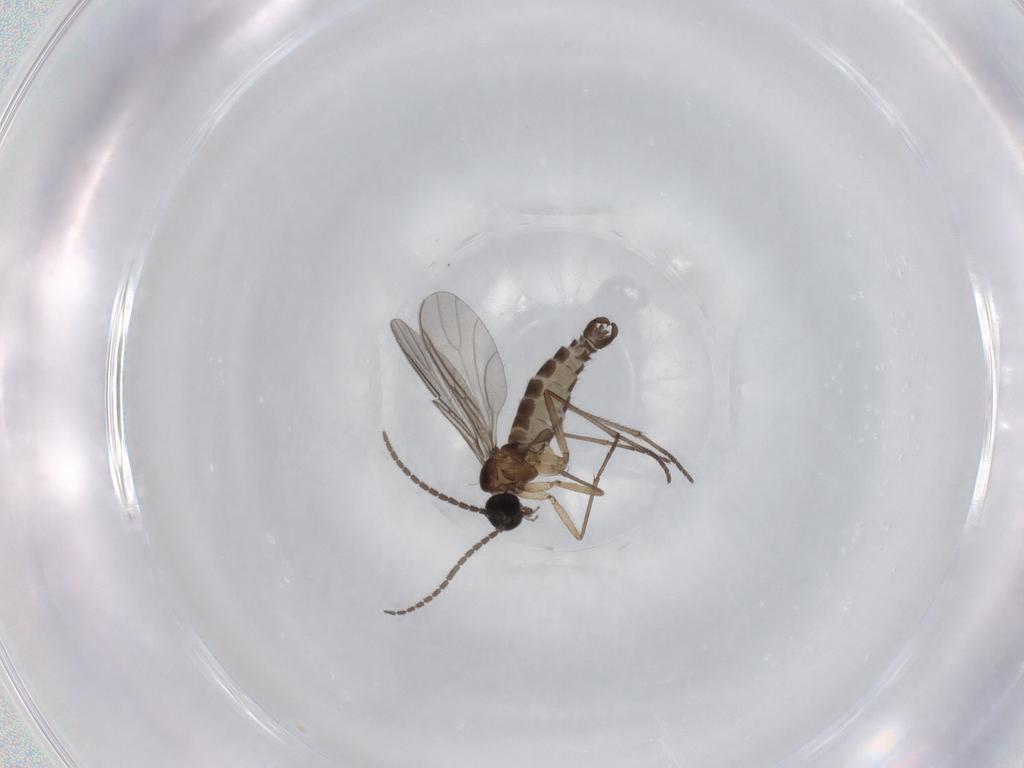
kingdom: Animalia
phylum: Arthropoda
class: Insecta
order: Diptera
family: Sciaridae
